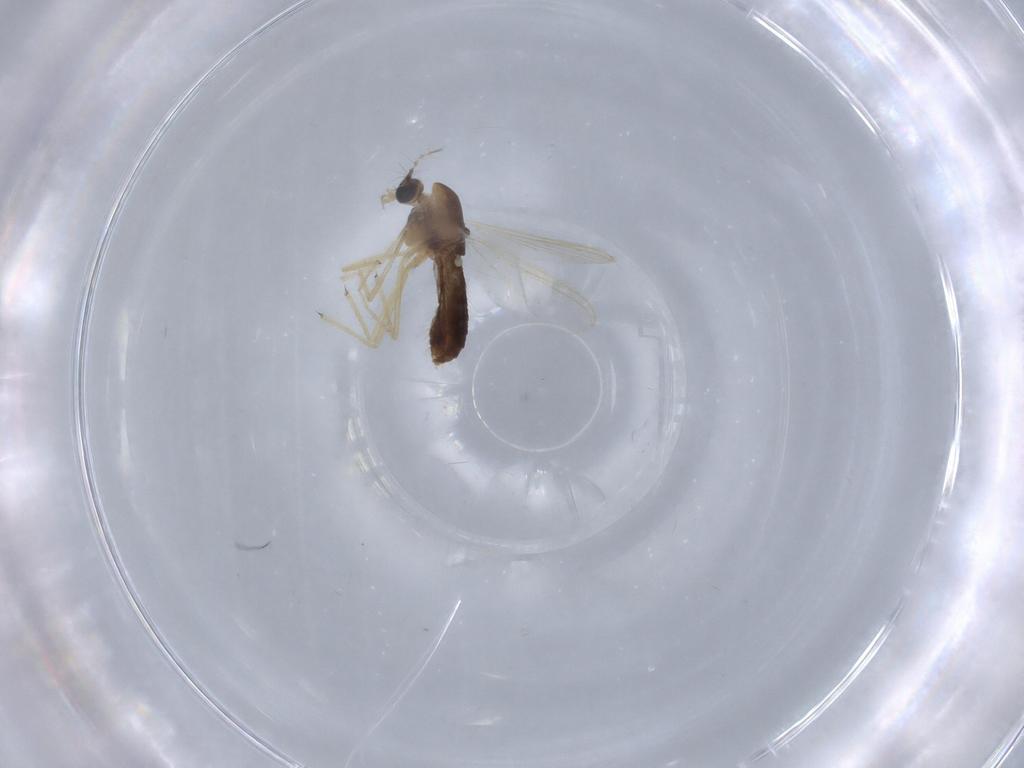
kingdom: Animalia
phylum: Arthropoda
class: Insecta
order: Diptera
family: Chironomidae
